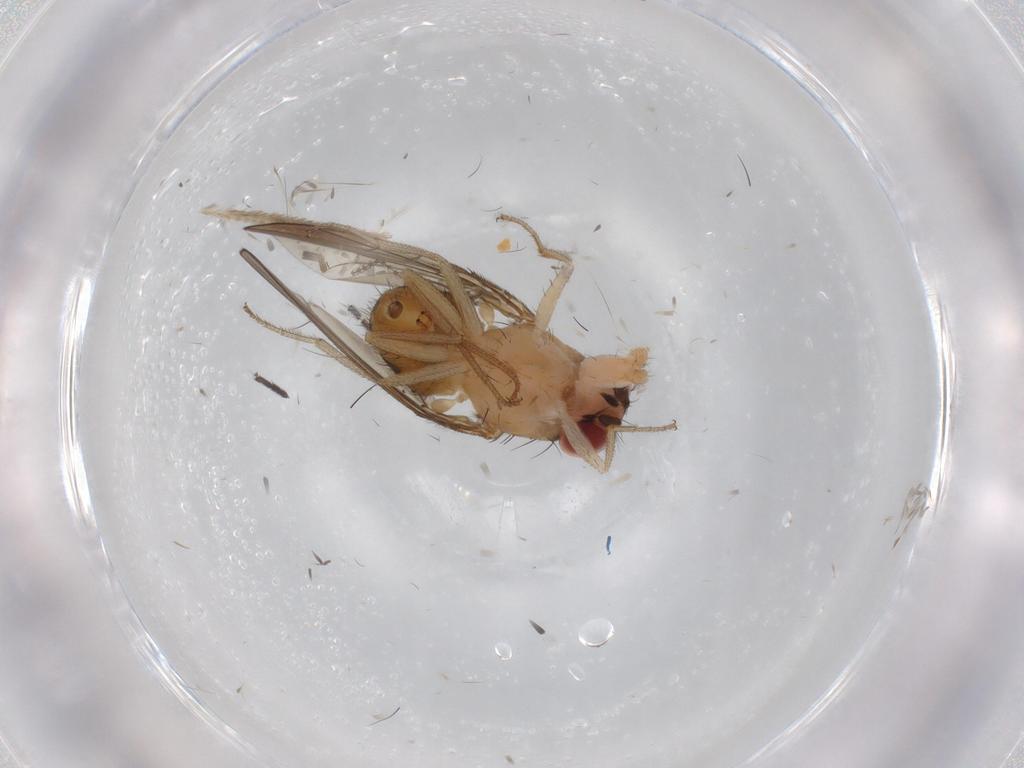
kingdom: Animalia
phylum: Arthropoda
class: Insecta
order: Diptera
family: Drosophilidae
